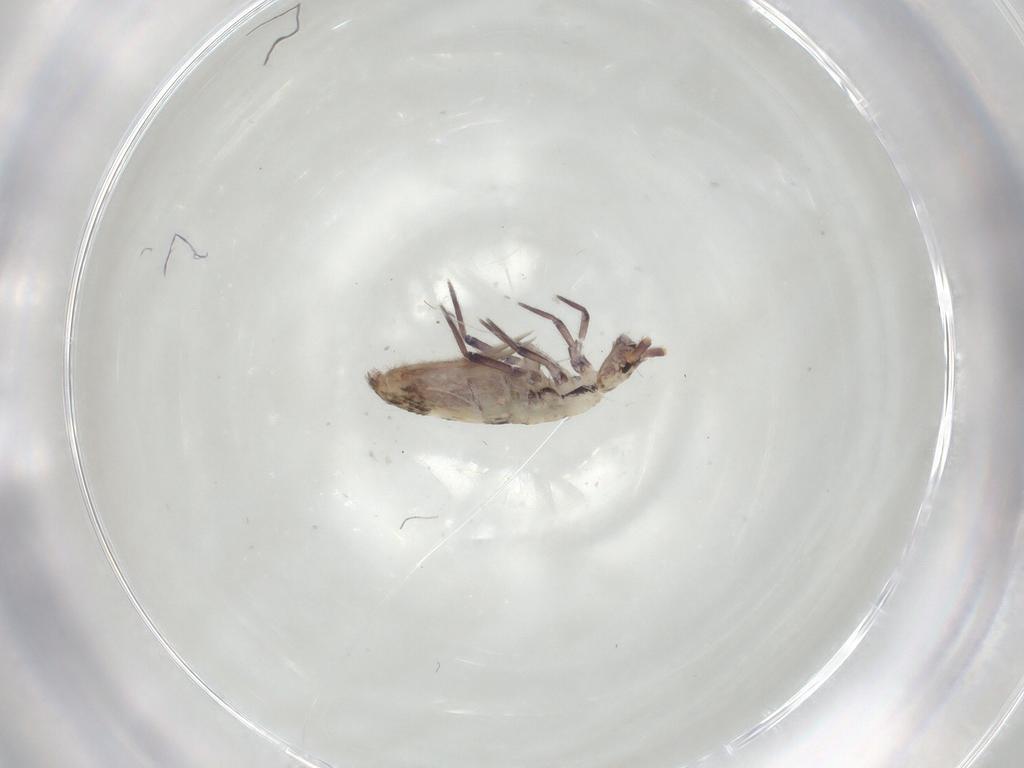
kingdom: Animalia
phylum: Arthropoda
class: Collembola
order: Entomobryomorpha
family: Entomobryidae
